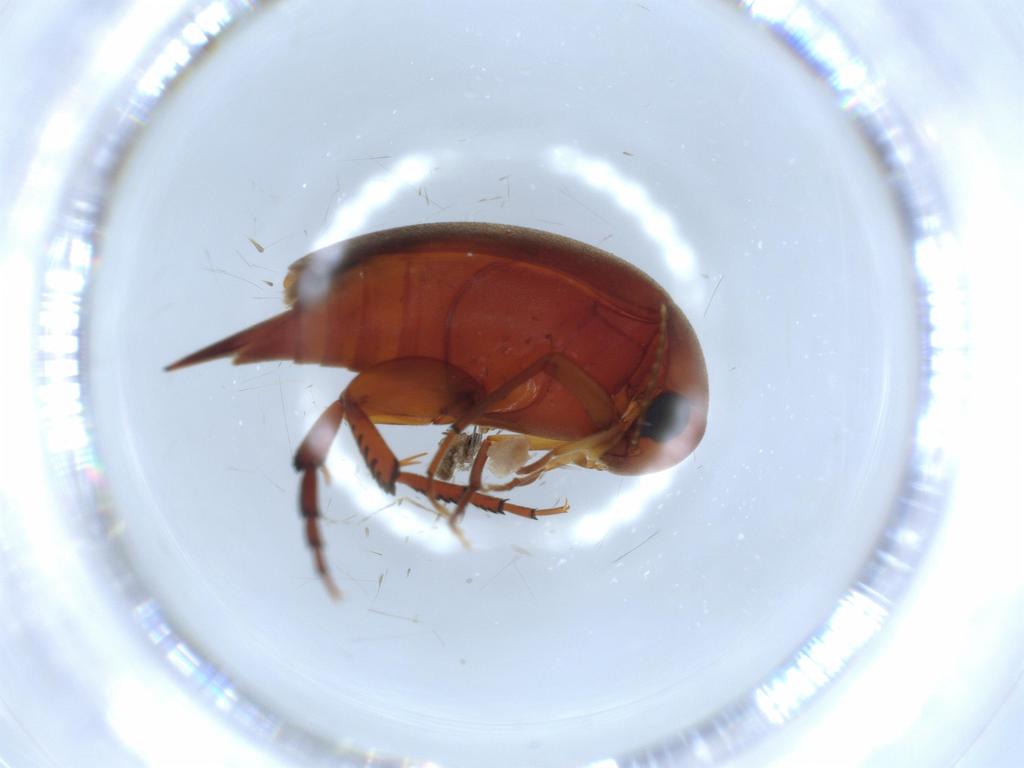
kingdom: Animalia
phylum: Arthropoda
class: Insecta
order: Coleoptera
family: Mordellidae
